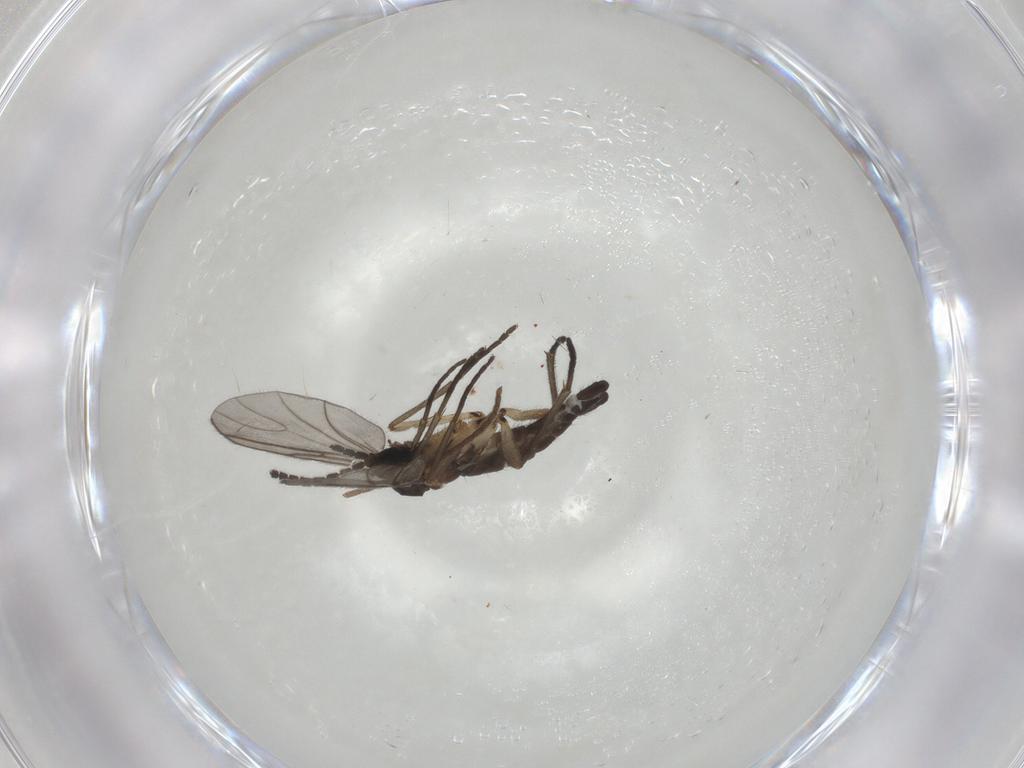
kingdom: Animalia
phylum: Arthropoda
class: Insecta
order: Diptera
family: Sciaridae
